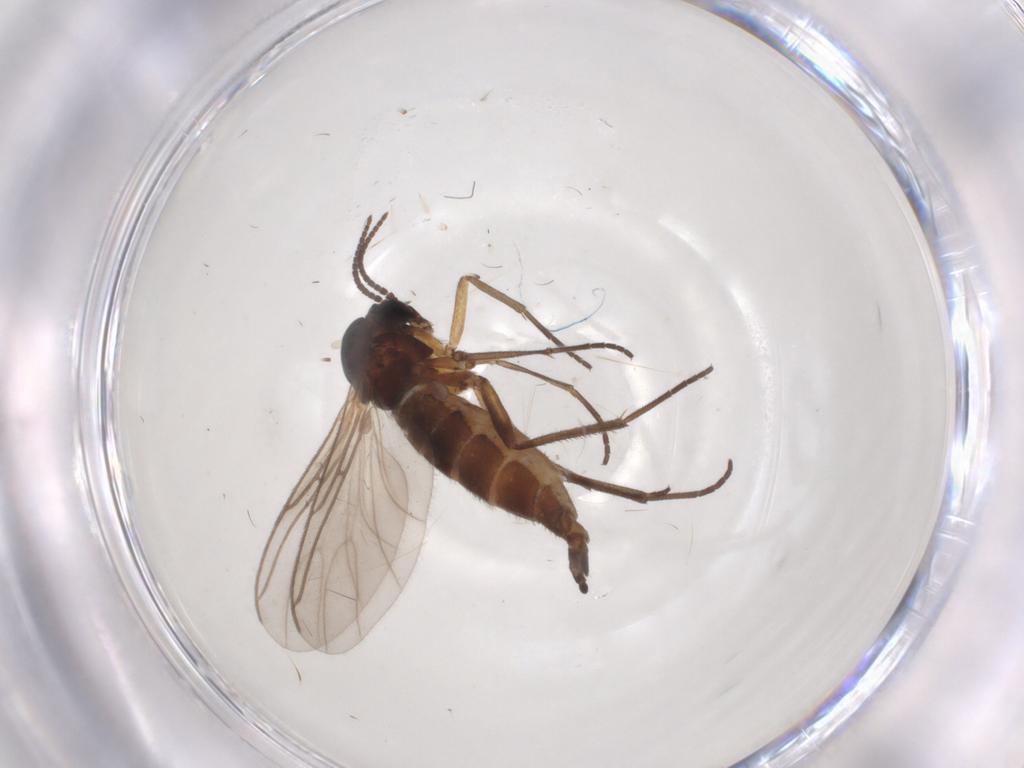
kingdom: Animalia
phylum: Arthropoda
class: Insecta
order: Diptera
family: Sciaridae
